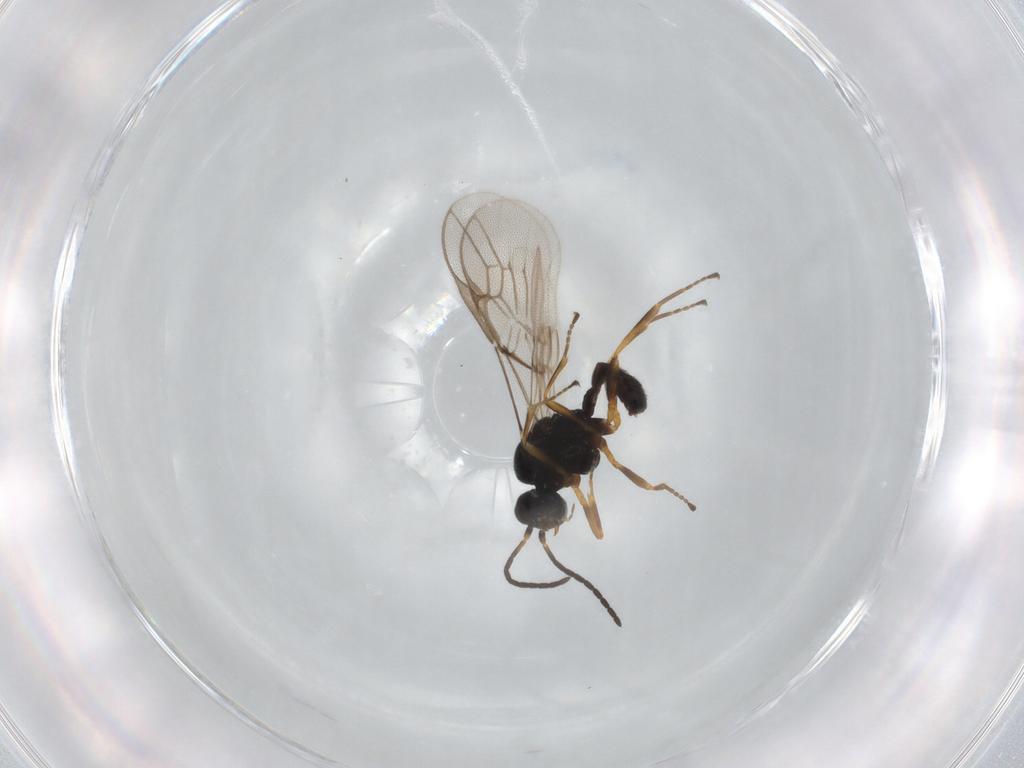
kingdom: Animalia
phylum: Arthropoda
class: Insecta
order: Hymenoptera
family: Braconidae
